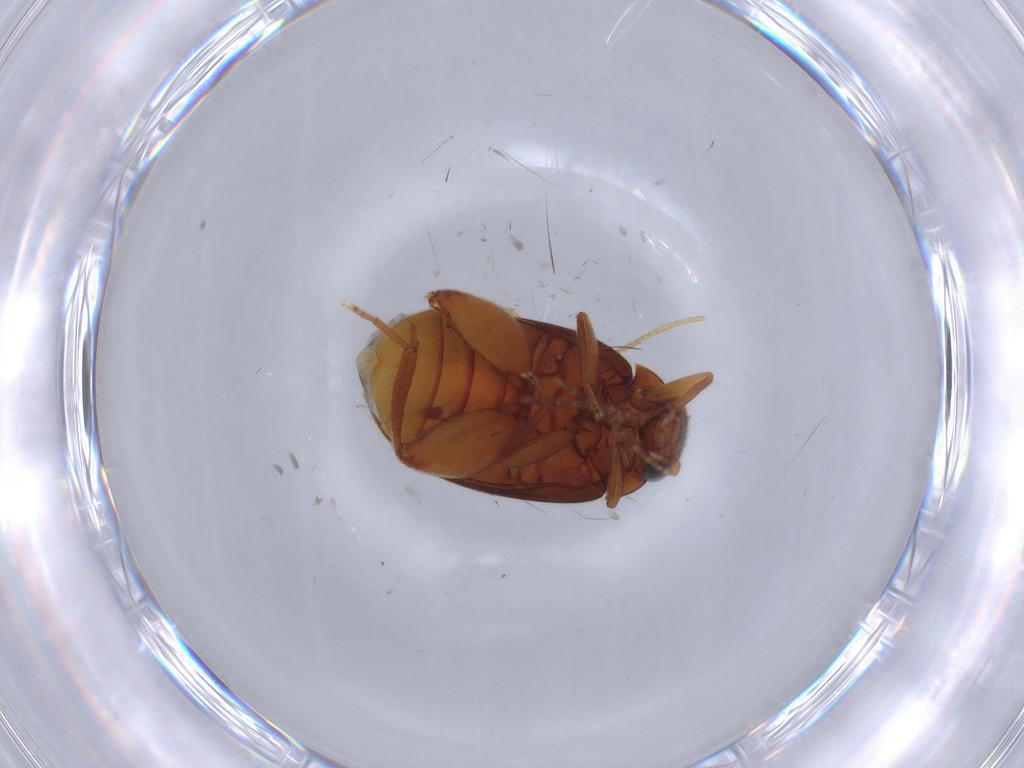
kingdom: Animalia
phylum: Arthropoda
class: Insecta
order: Coleoptera
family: Scirtidae
